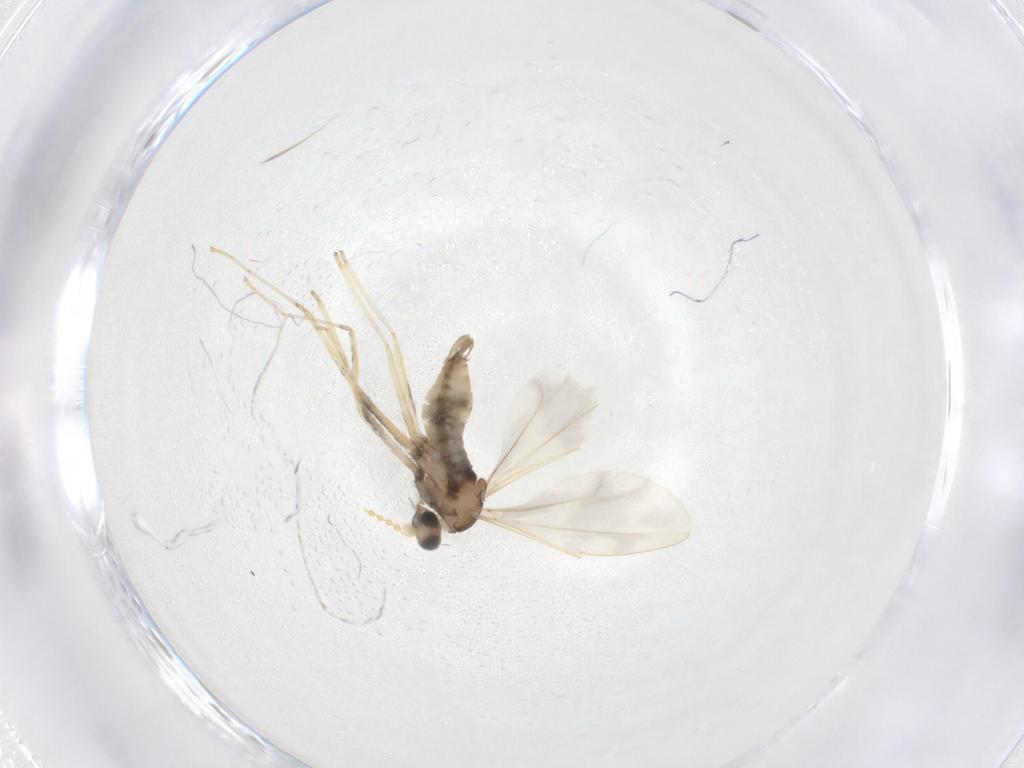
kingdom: Animalia
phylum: Arthropoda
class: Insecta
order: Diptera
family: Cecidomyiidae
